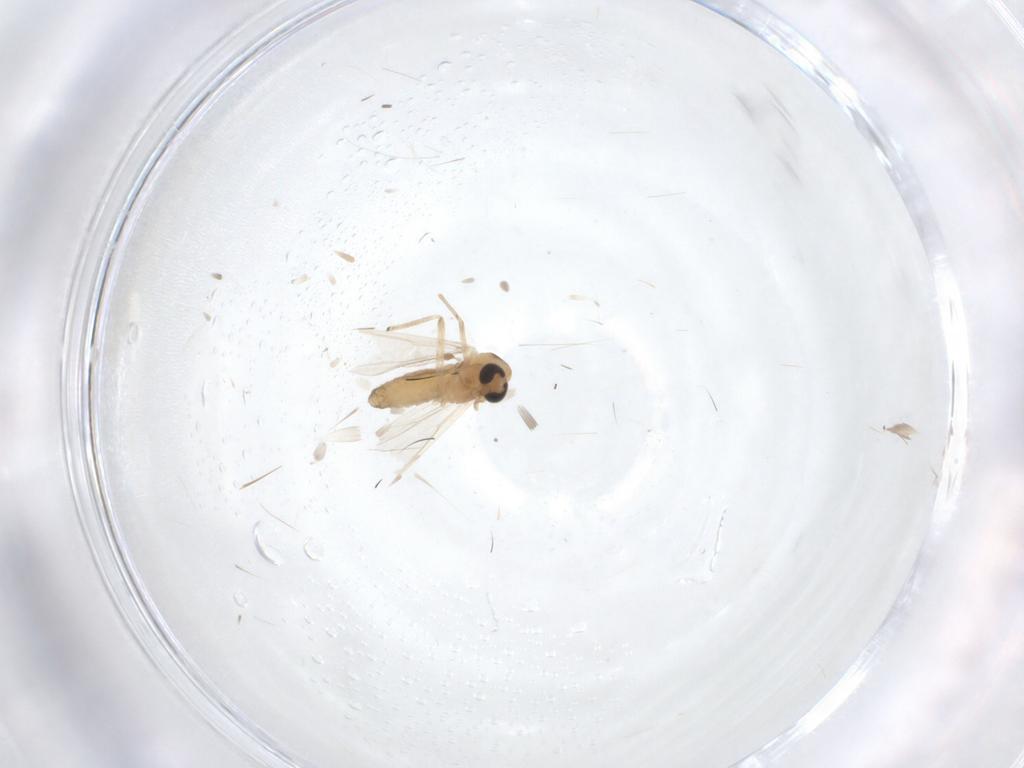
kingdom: Animalia
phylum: Arthropoda
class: Insecta
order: Diptera
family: Chironomidae
